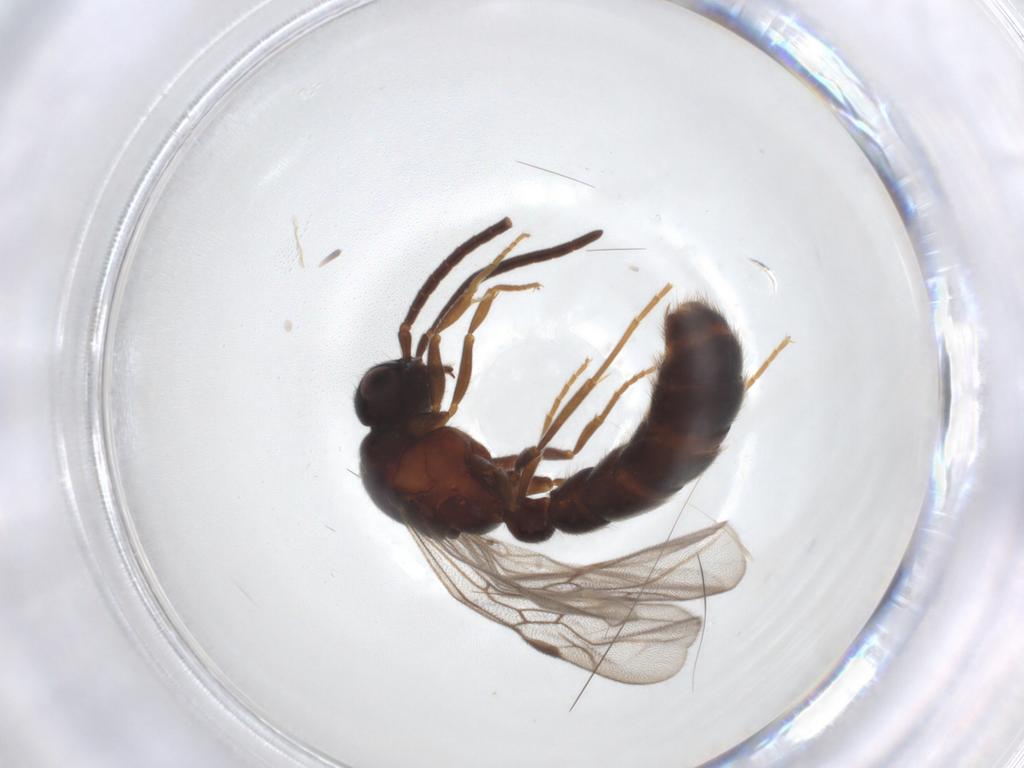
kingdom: Animalia
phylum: Arthropoda
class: Insecta
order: Hymenoptera
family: Formicidae
